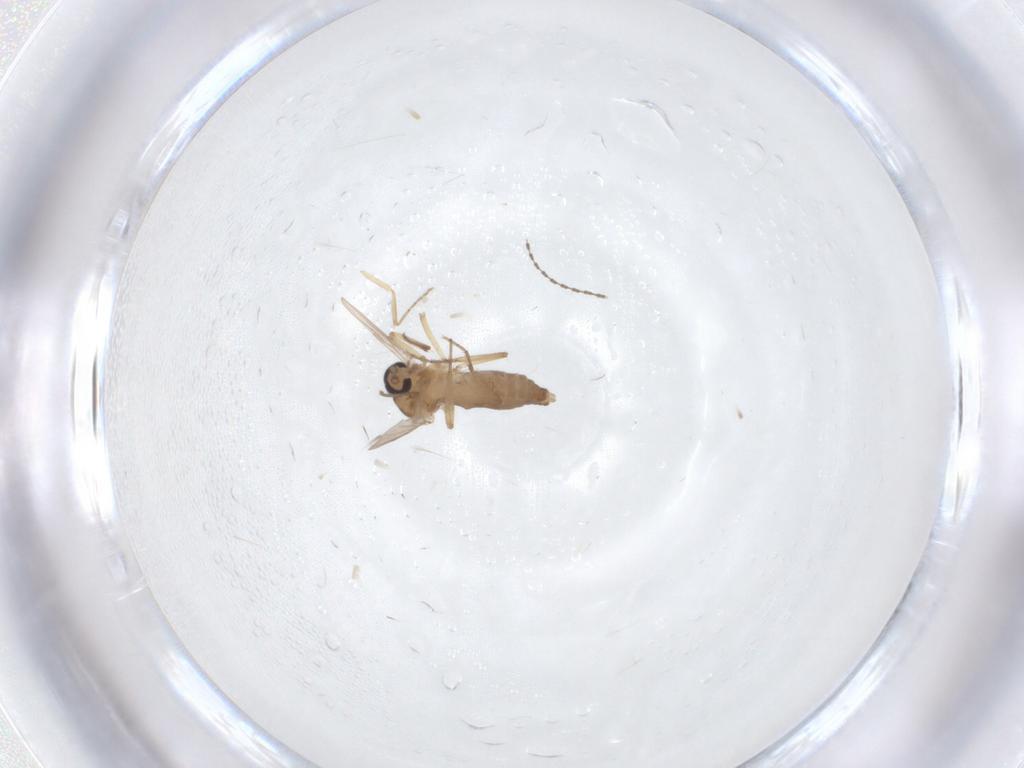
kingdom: Animalia
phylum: Arthropoda
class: Insecta
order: Diptera
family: Ceratopogonidae
